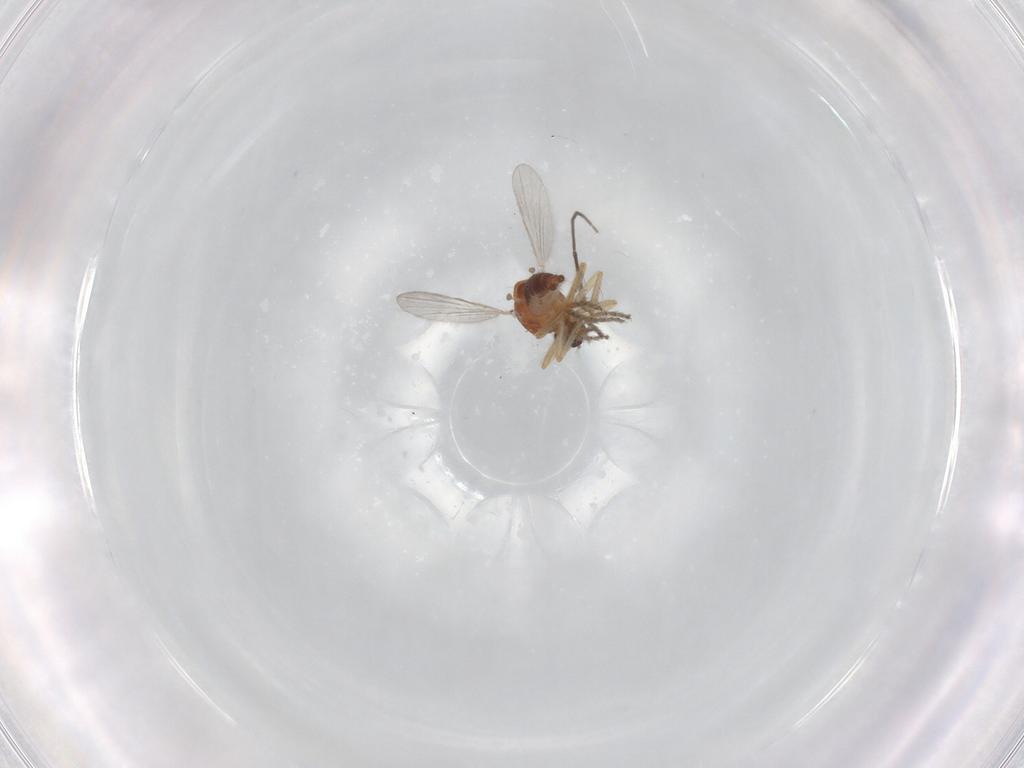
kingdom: Animalia
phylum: Arthropoda
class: Insecta
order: Diptera
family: Ceratopogonidae
